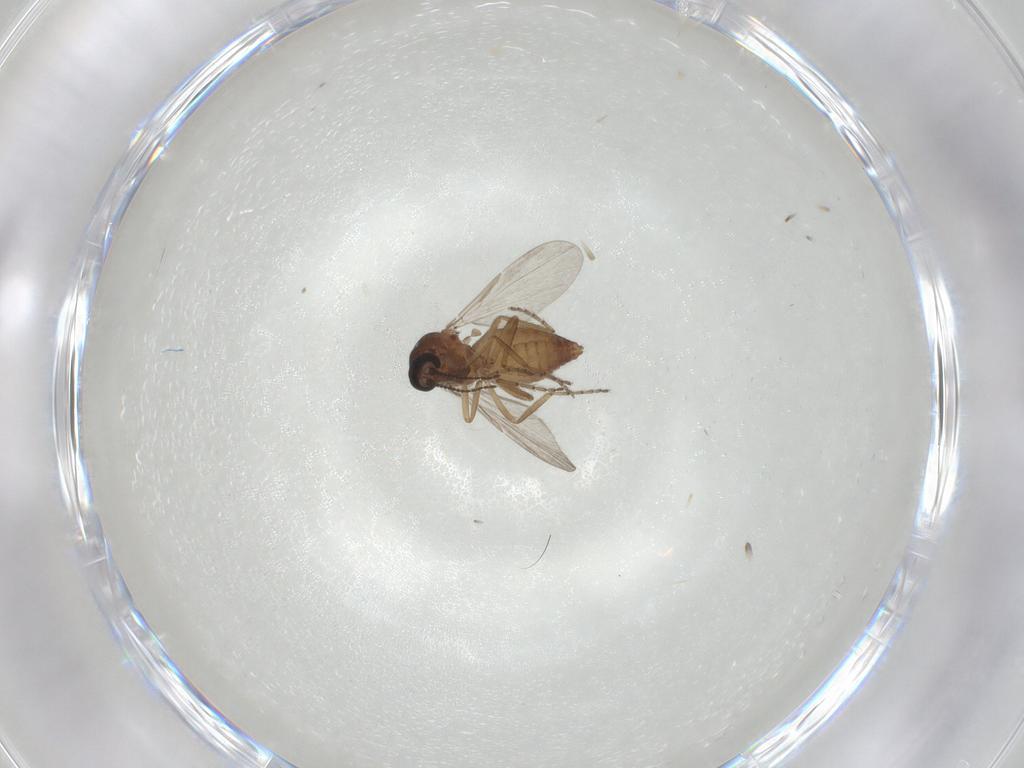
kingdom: Animalia
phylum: Arthropoda
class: Insecta
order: Diptera
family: Ceratopogonidae
